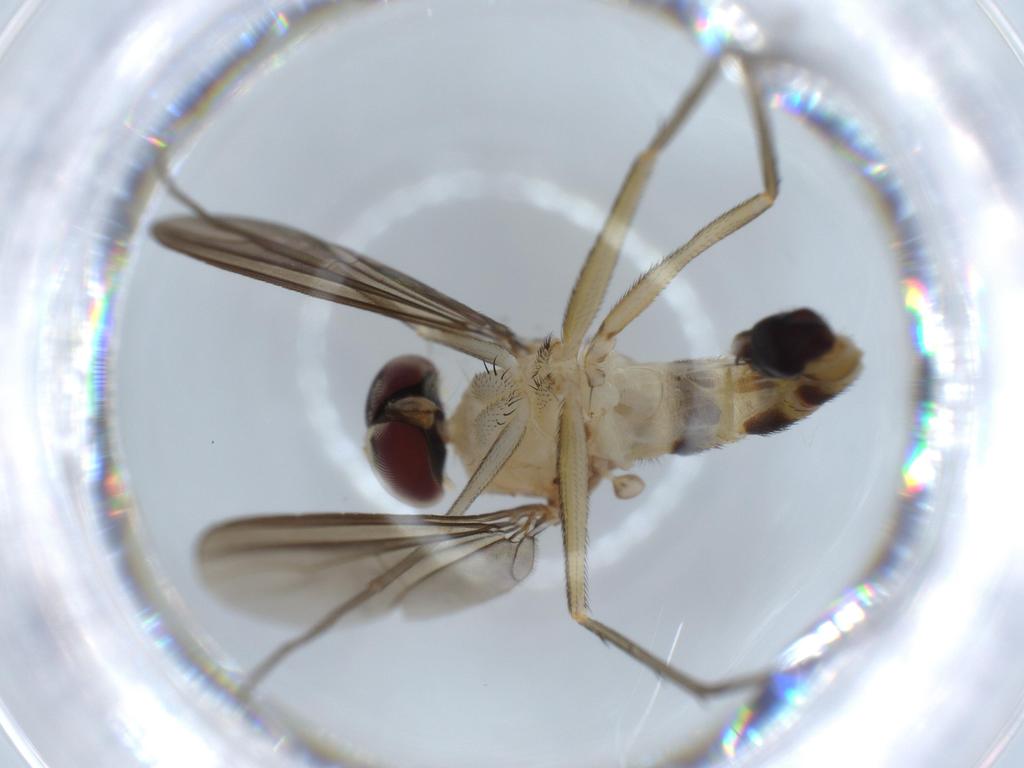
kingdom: Animalia
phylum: Arthropoda
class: Insecta
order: Diptera
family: Dolichopodidae
